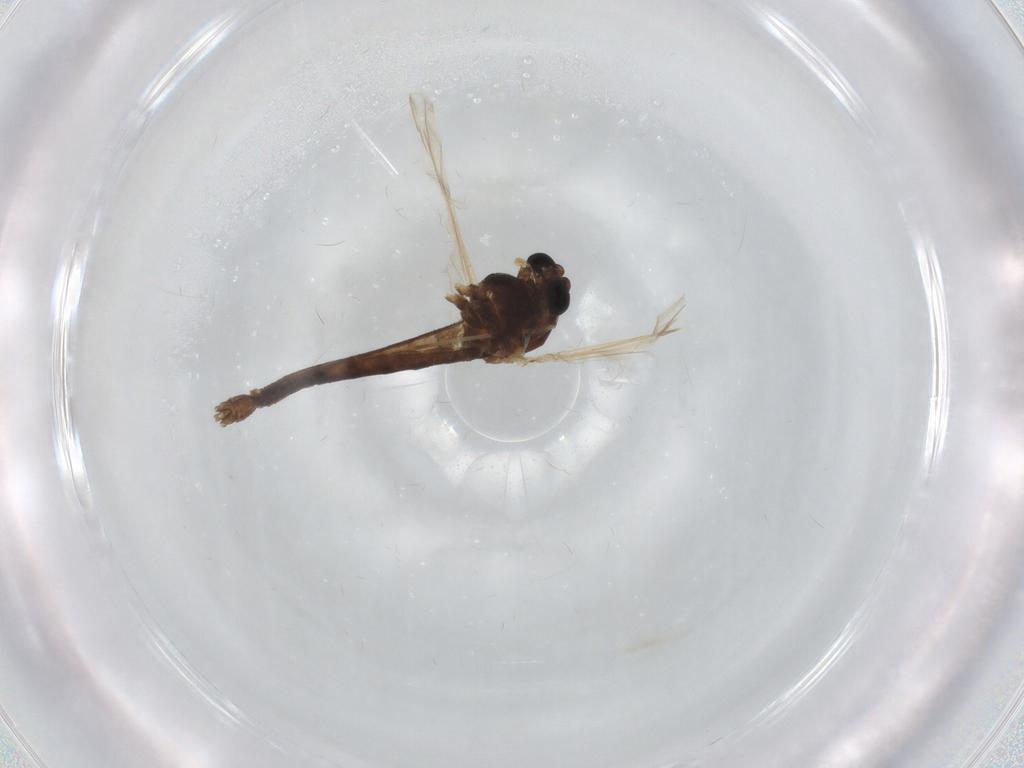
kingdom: Animalia
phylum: Arthropoda
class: Insecta
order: Diptera
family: Chironomidae
